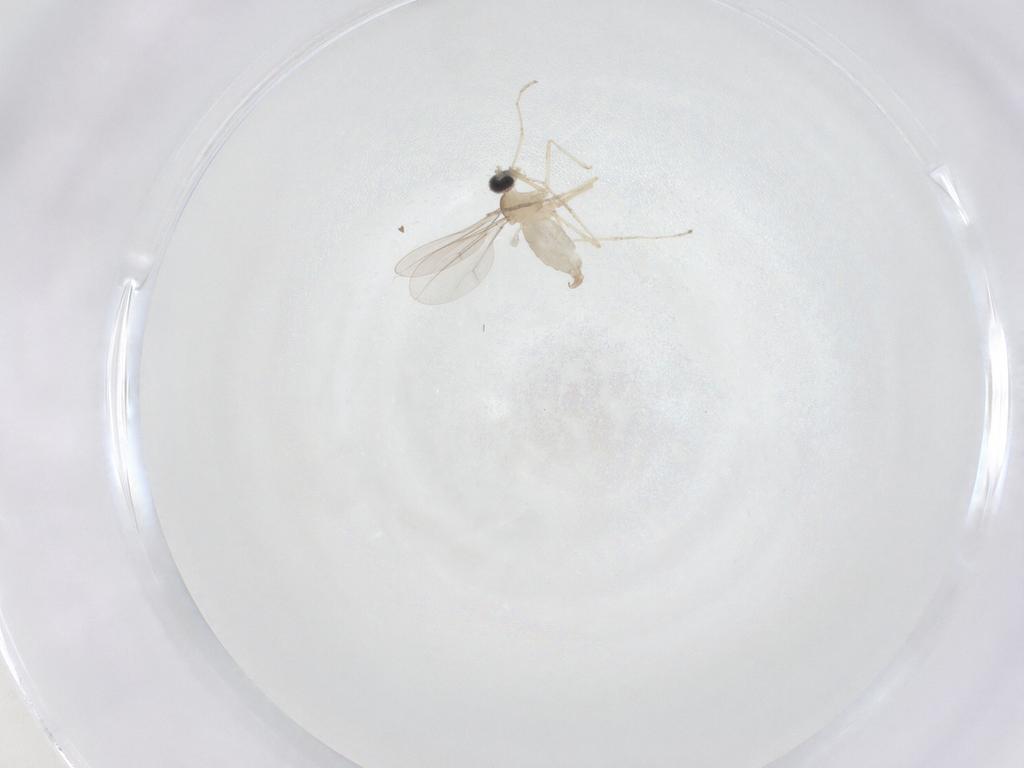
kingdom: Animalia
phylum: Arthropoda
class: Insecta
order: Diptera
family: Cecidomyiidae
